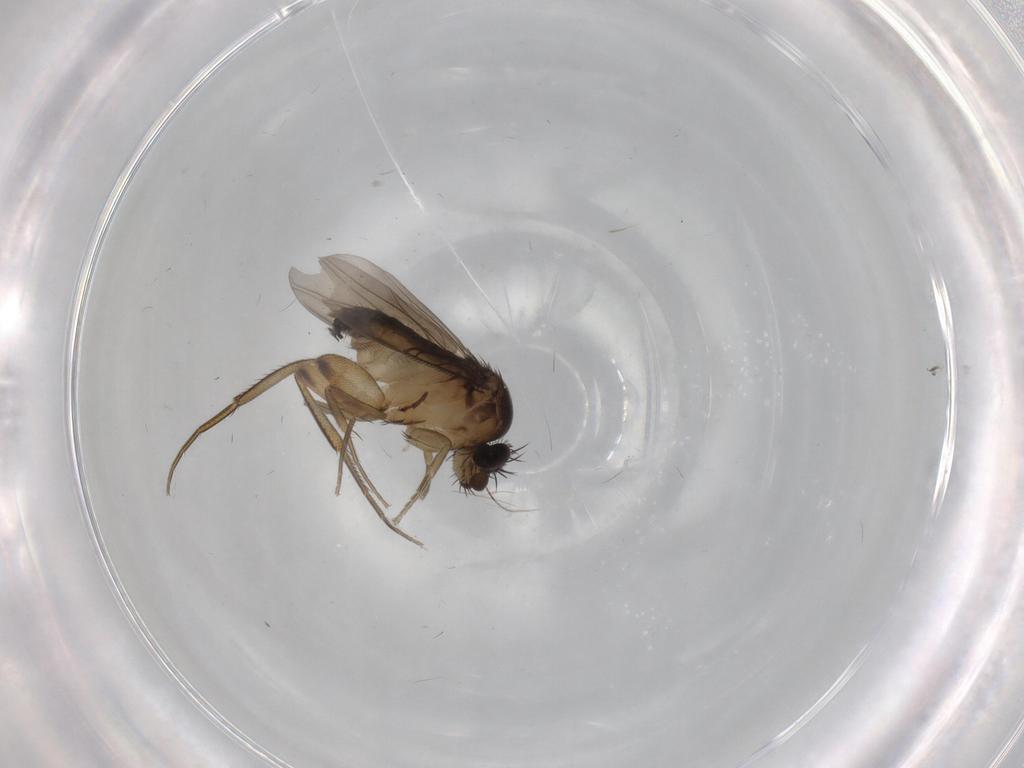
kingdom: Animalia
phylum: Arthropoda
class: Insecta
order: Diptera
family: Phoridae
